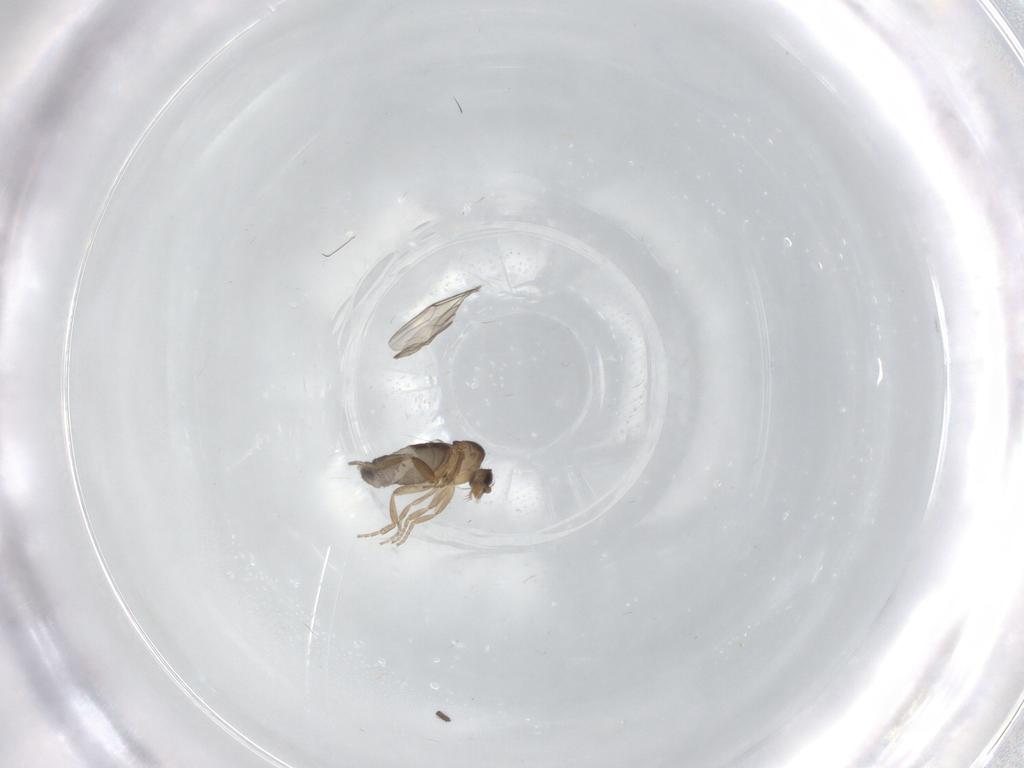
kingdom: Animalia
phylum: Arthropoda
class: Insecta
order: Diptera
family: Phoridae
